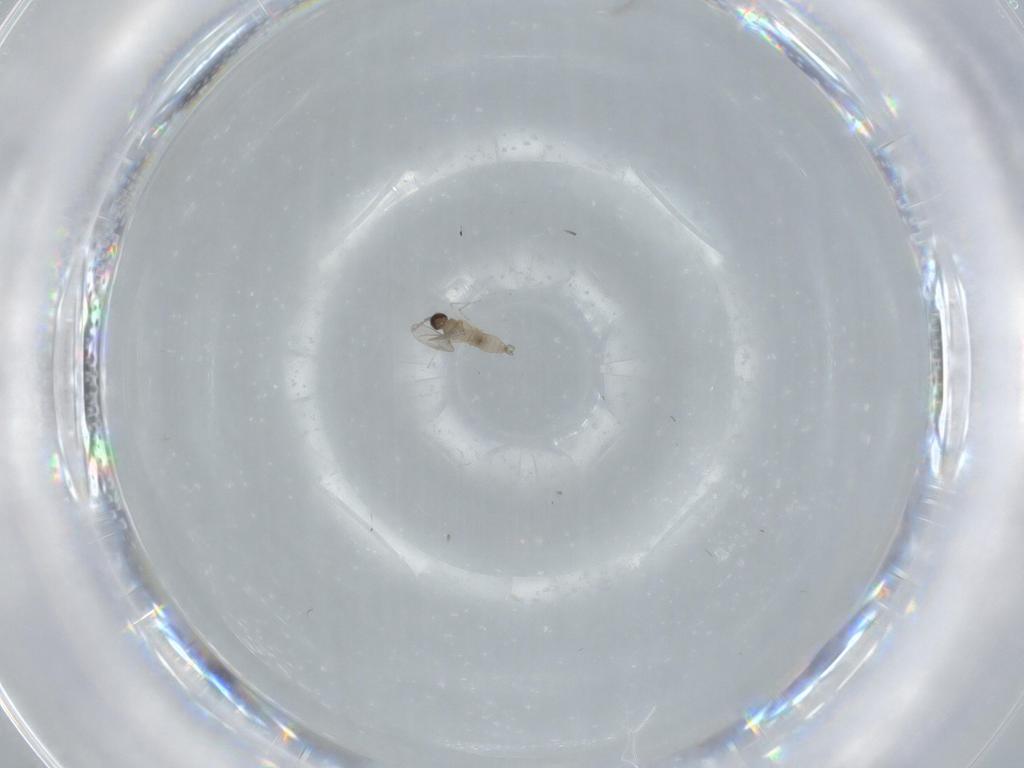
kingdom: Animalia
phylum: Arthropoda
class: Insecta
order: Diptera
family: Cecidomyiidae
